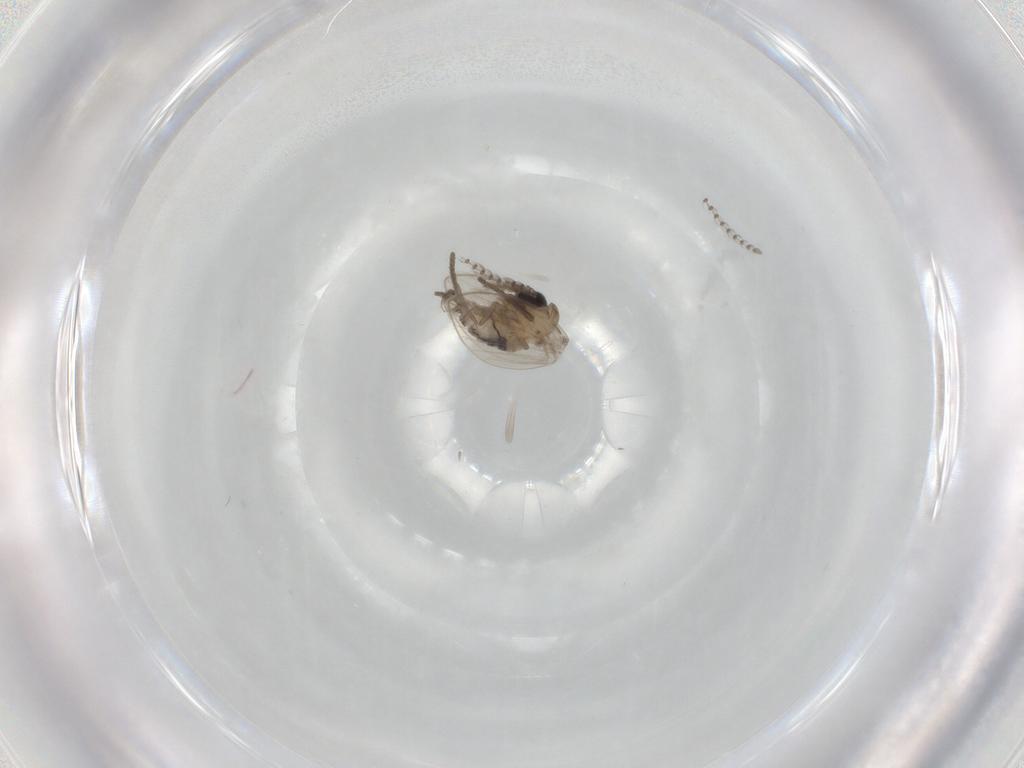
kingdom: Animalia
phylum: Arthropoda
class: Insecta
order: Diptera
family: Psychodidae
